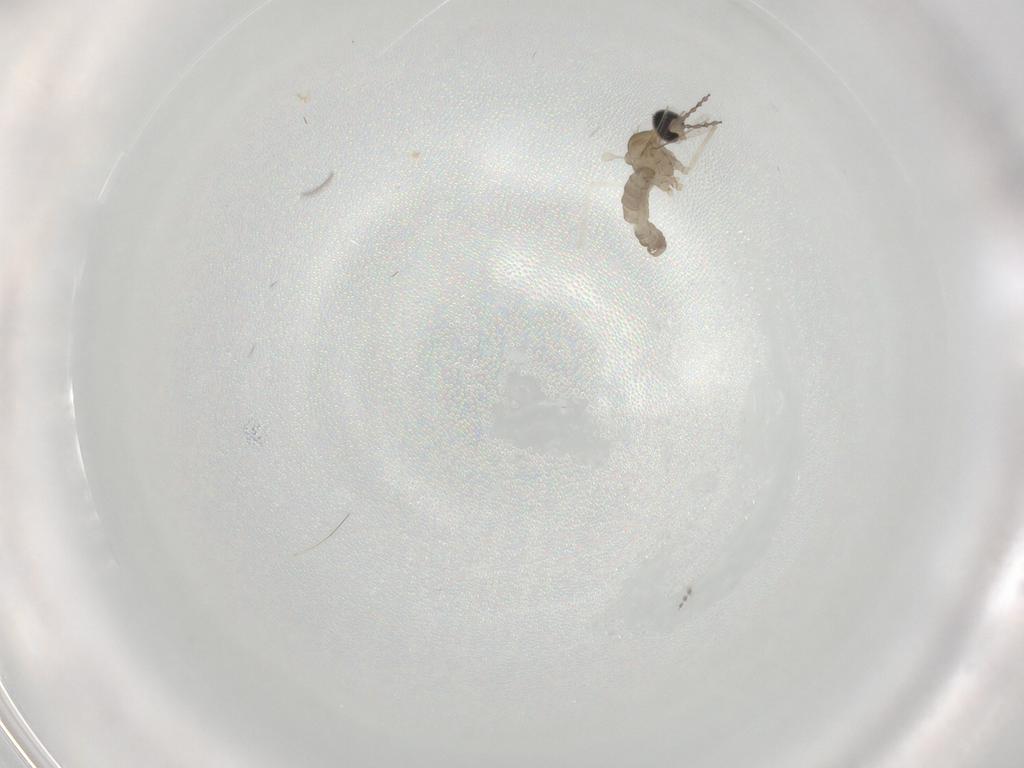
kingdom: Animalia
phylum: Arthropoda
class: Insecta
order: Diptera
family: Cecidomyiidae
